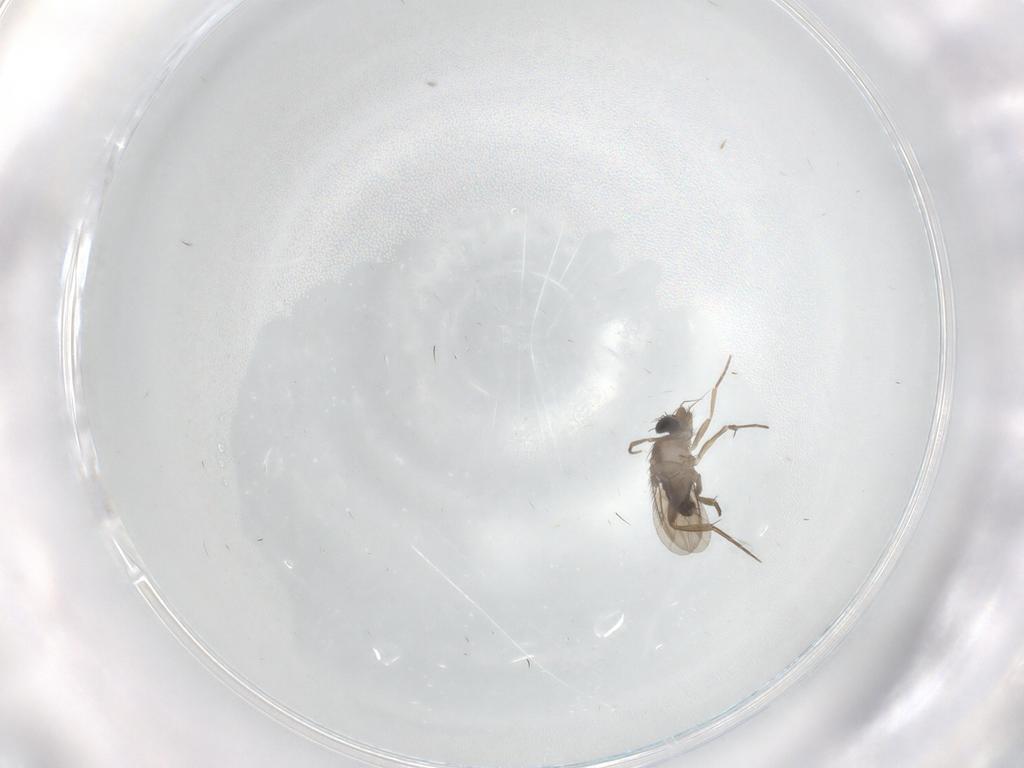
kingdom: Animalia
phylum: Arthropoda
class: Insecta
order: Diptera
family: Phoridae
